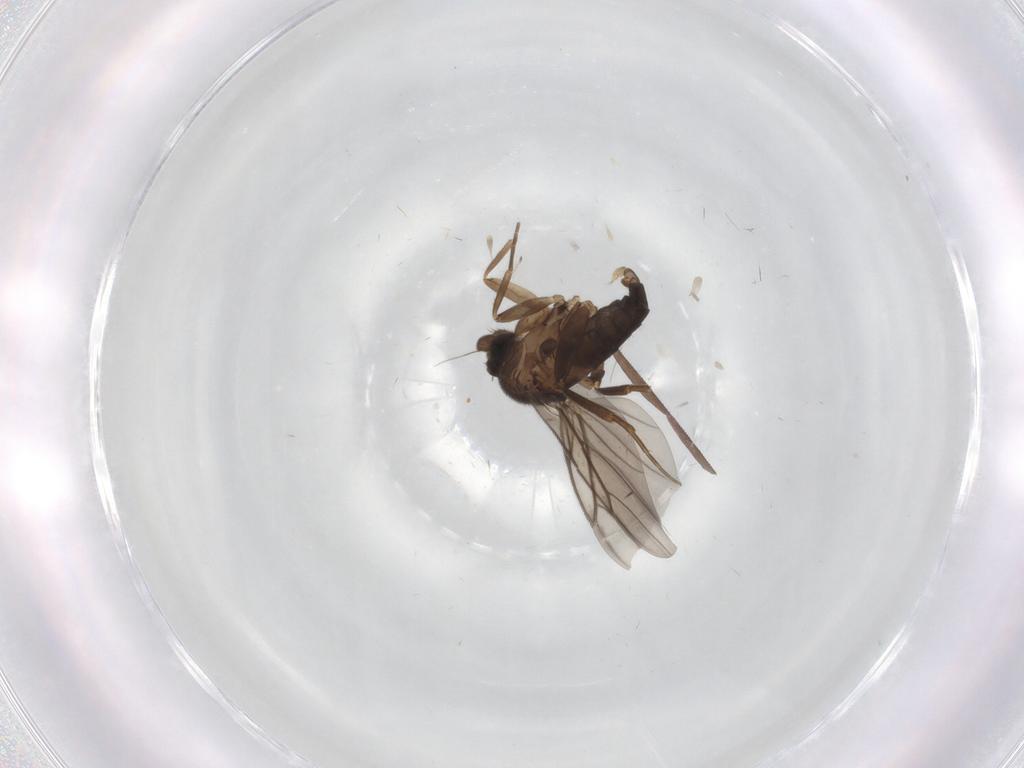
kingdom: Animalia
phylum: Arthropoda
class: Insecta
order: Diptera
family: Cecidomyiidae
